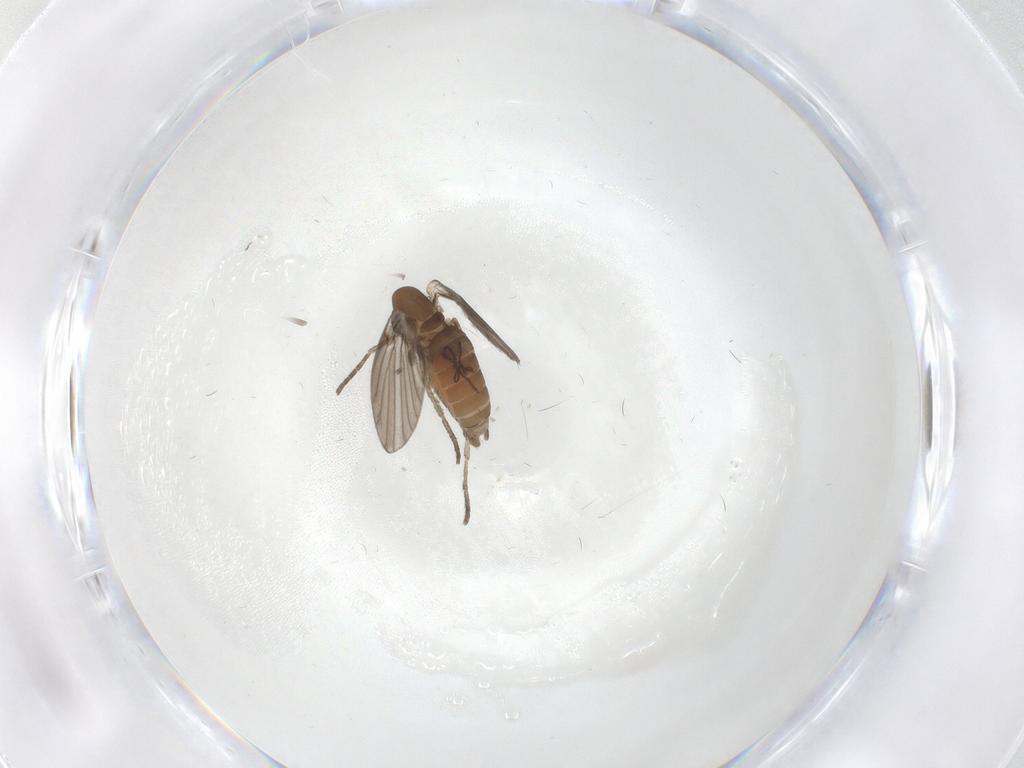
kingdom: Animalia
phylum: Arthropoda
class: Insecta
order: Diptera
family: Psychodidae
